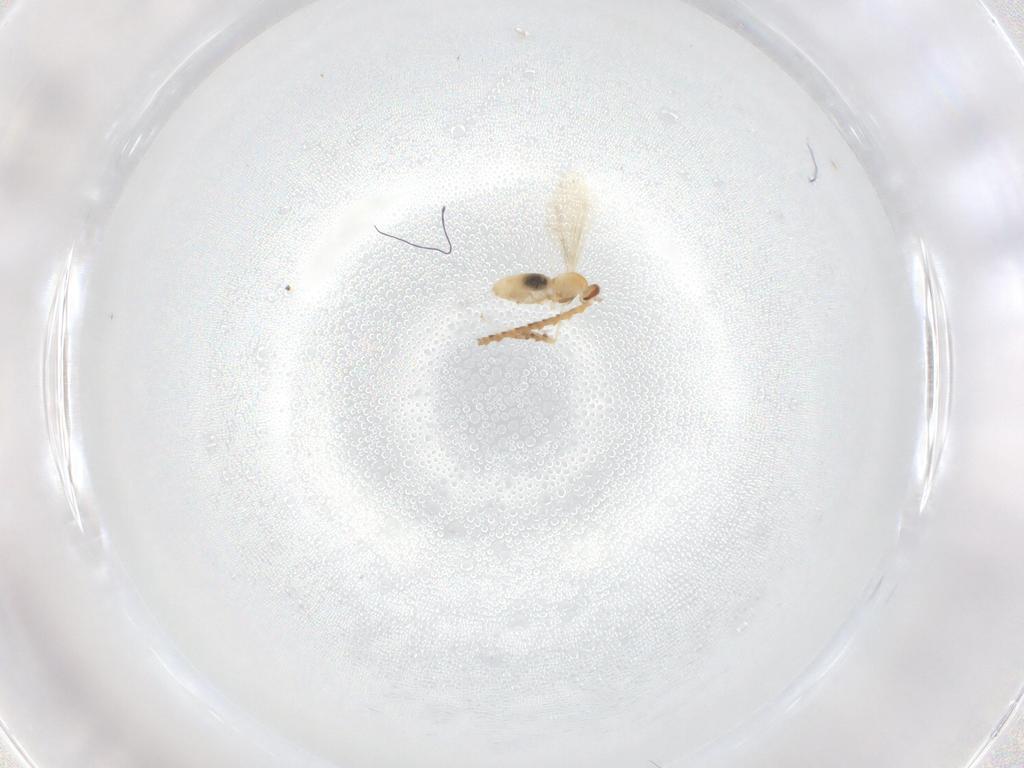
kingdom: Animalia
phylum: Arthropoda
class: Insecta
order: Diptera
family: Cecidomyiidae
